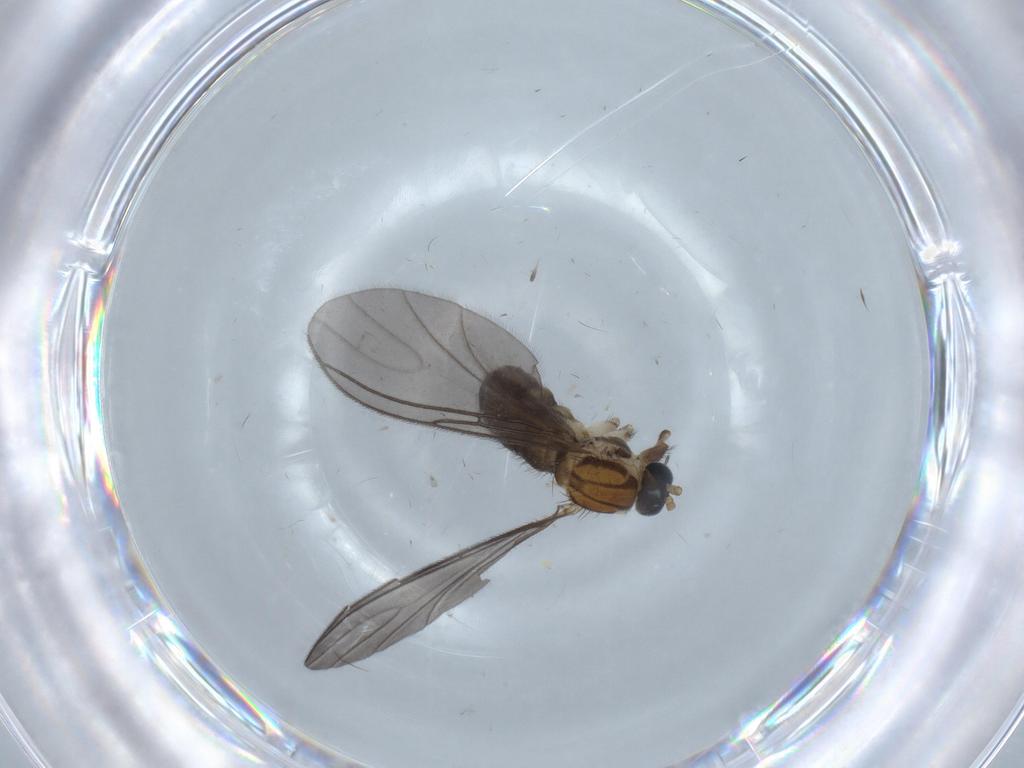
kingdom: Animalia
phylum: Arthropoda
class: Insecta
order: Diptera
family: Sciaridae
